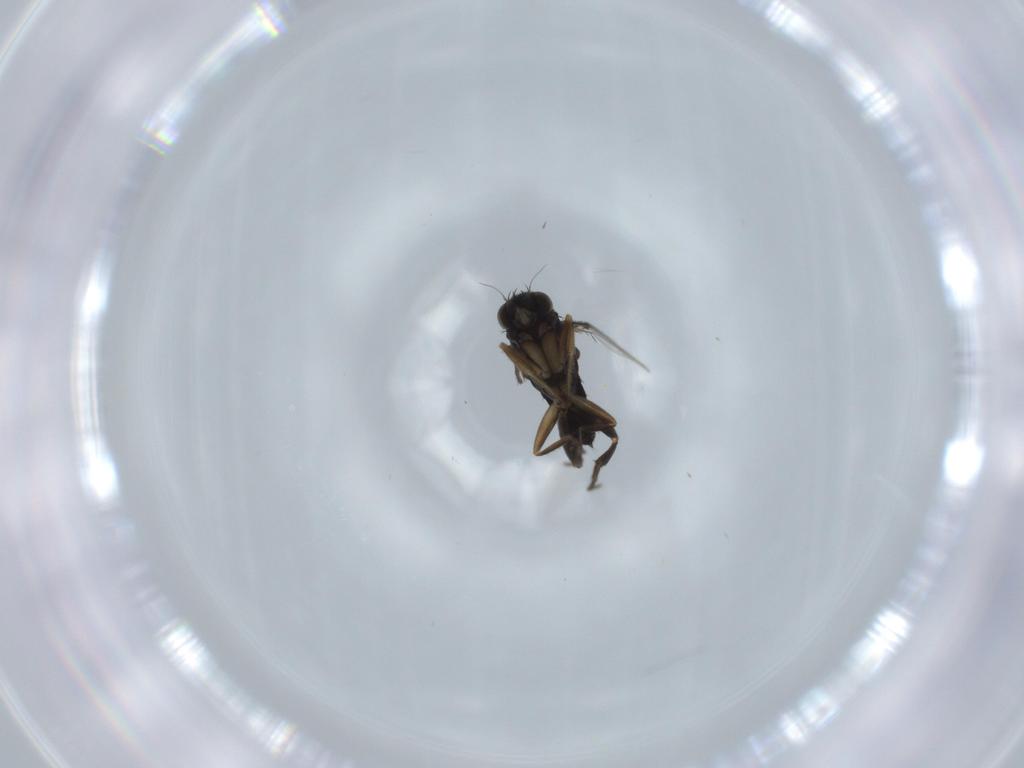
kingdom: Animalia
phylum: Arthropoda
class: Insecta
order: Diptera
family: Phoridae
